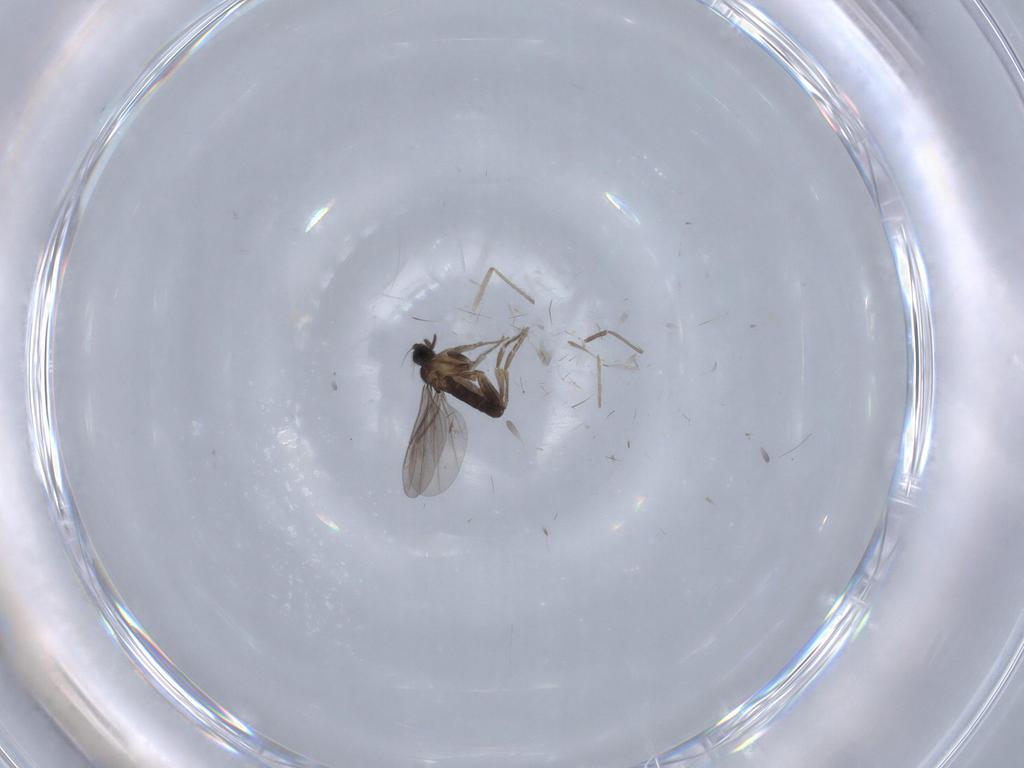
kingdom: Animalia
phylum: Arthropoda
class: Insecta
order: Diptera
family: Chironomidae
